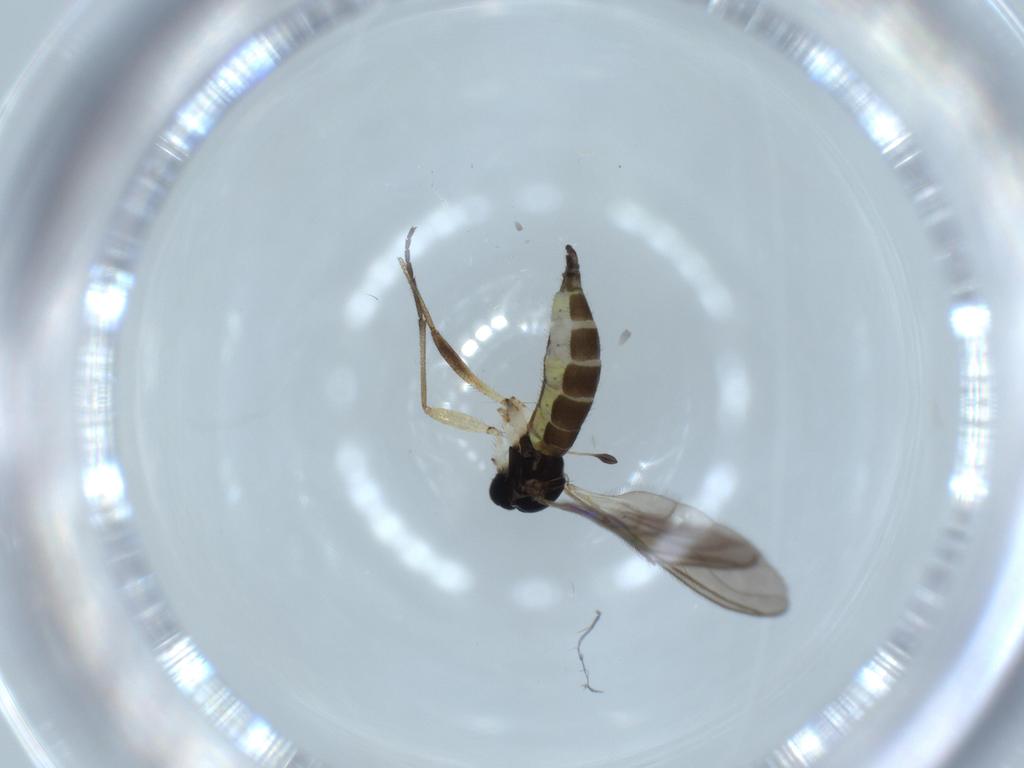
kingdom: Animalia
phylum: Arthropoda
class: Insecta
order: Diptera
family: Sciaridae
